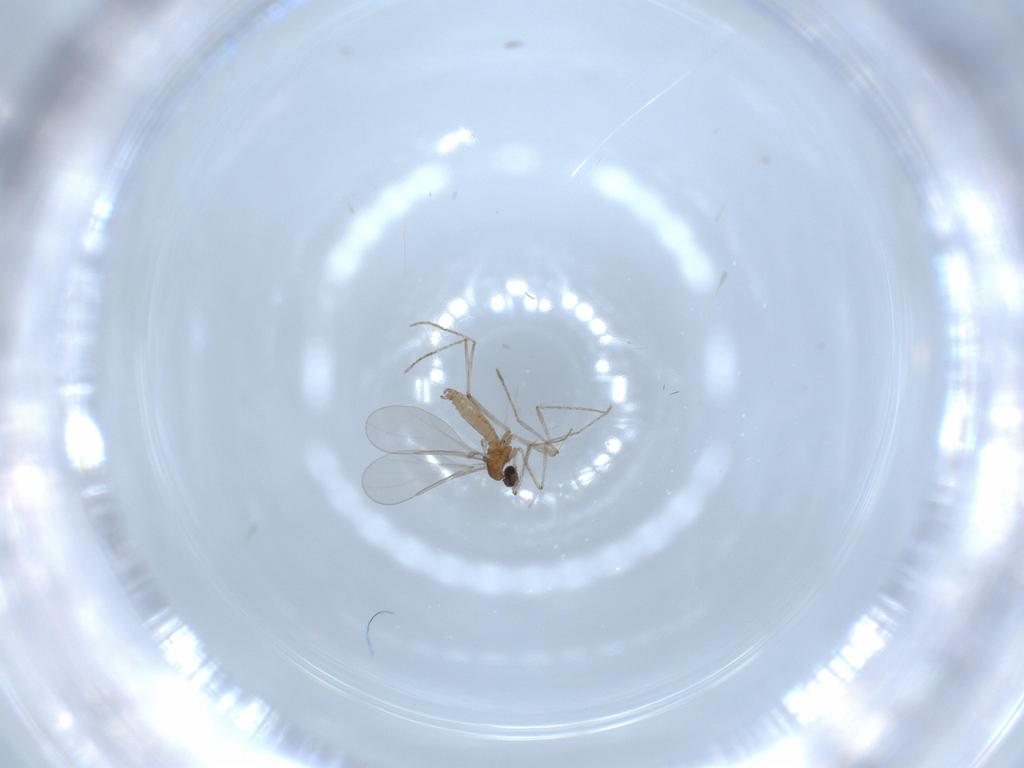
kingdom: Animalia
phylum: Arthropoda
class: Insecta
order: Diptera
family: Cecidomyiidae
